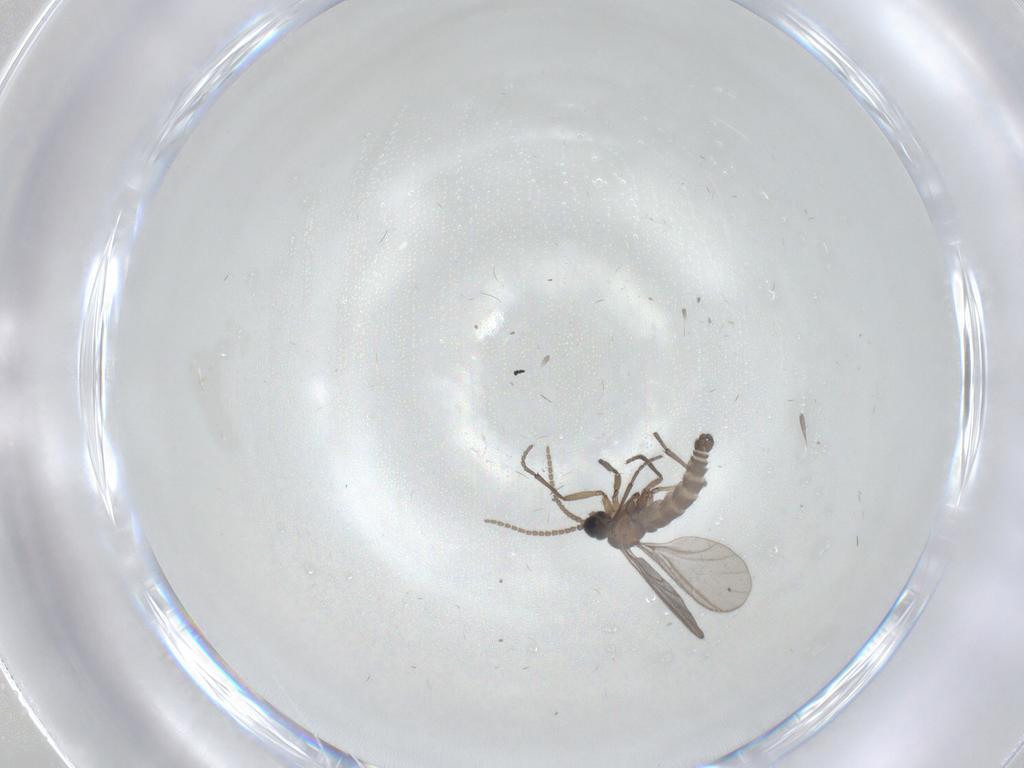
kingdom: Animalia
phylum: Arthropoda
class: Insecta
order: Diptera
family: Sciaridae
